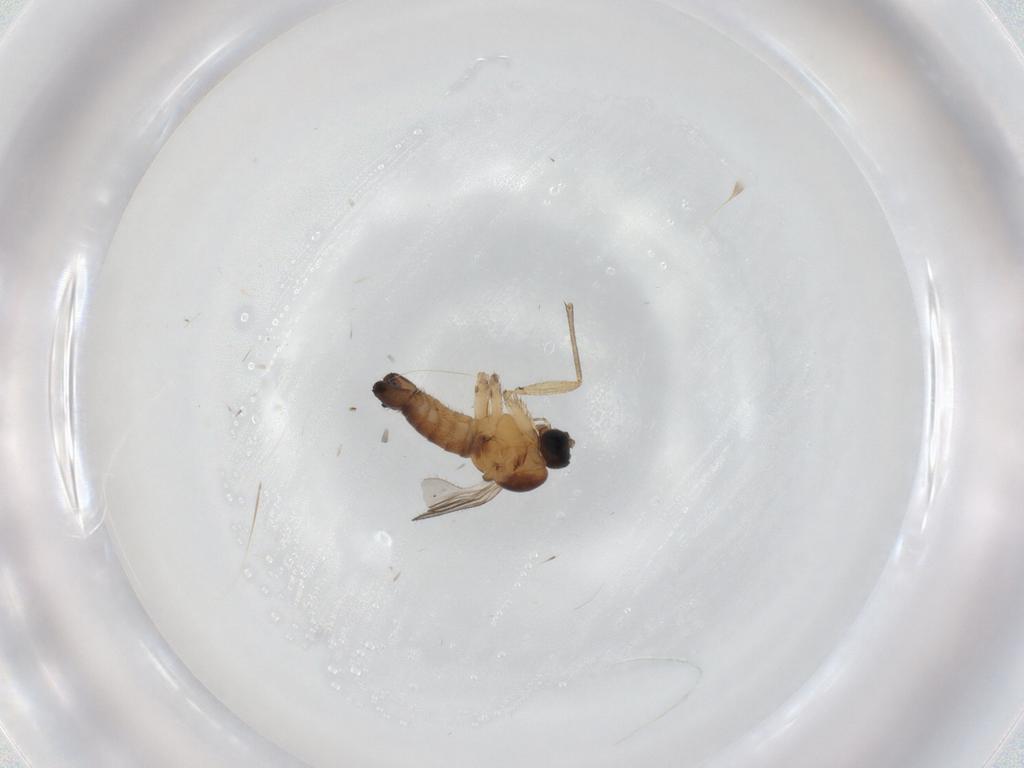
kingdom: Animalia
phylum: Arthropoda
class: Insecta
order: Diptera
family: Sciaridae
